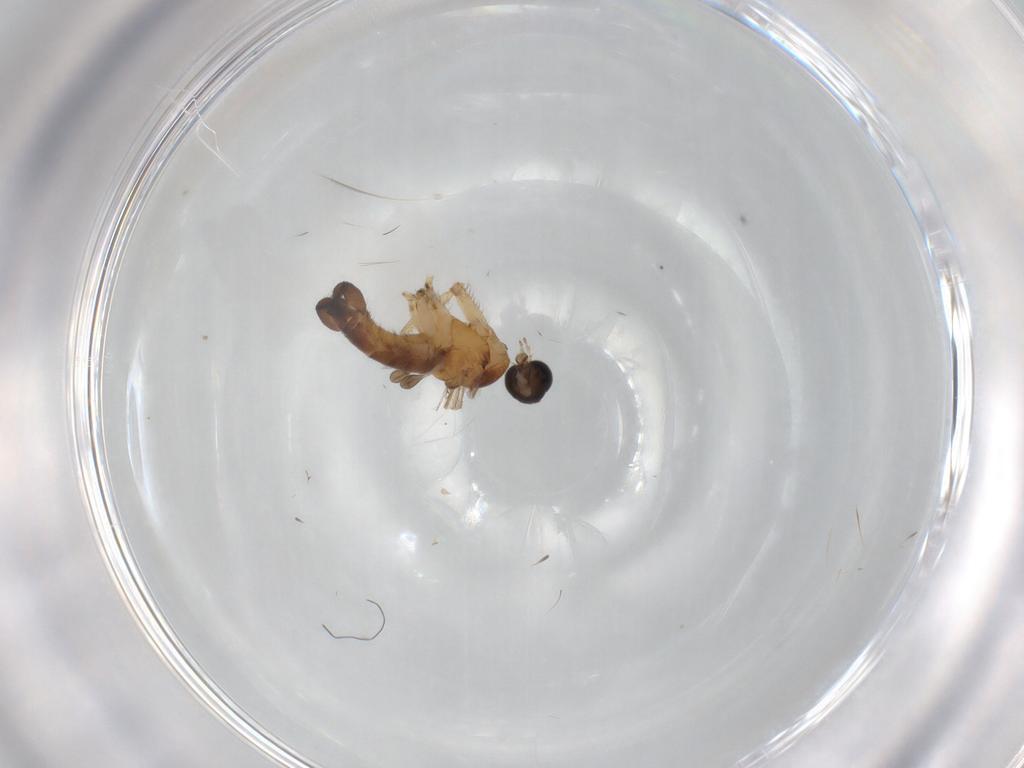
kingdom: Animalia
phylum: Arthropoda
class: Insecta
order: Diptera
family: Sciaridae
